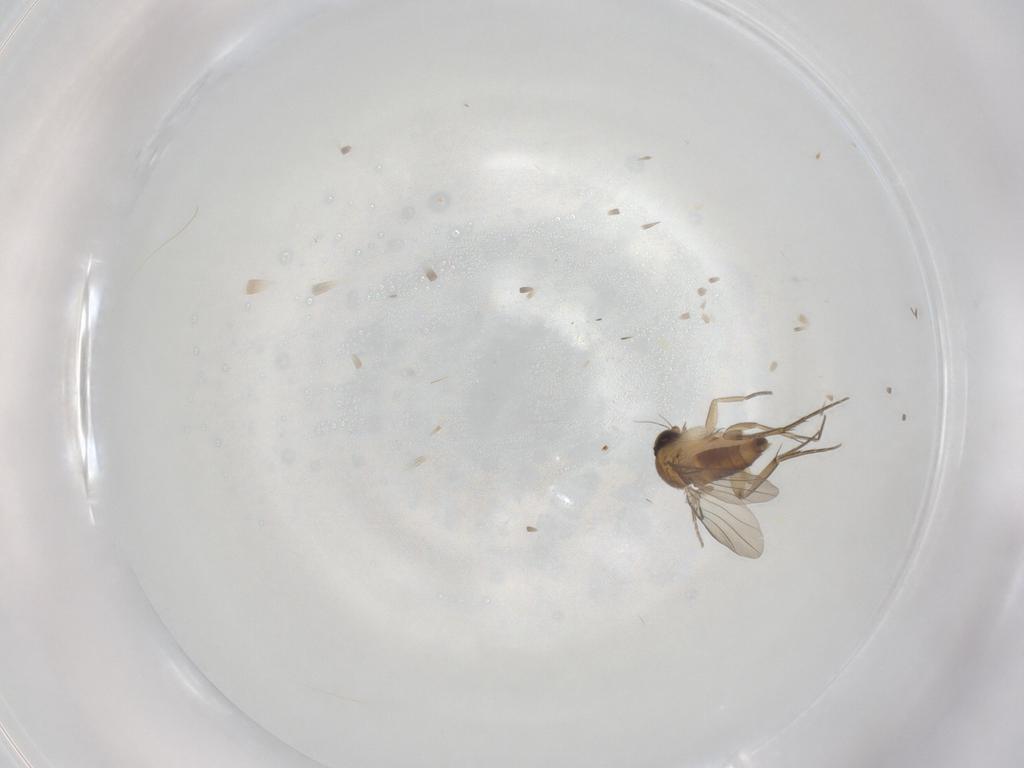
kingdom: Animalia
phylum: Arthropoda
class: Insecta
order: Diptera
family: Phoridae
